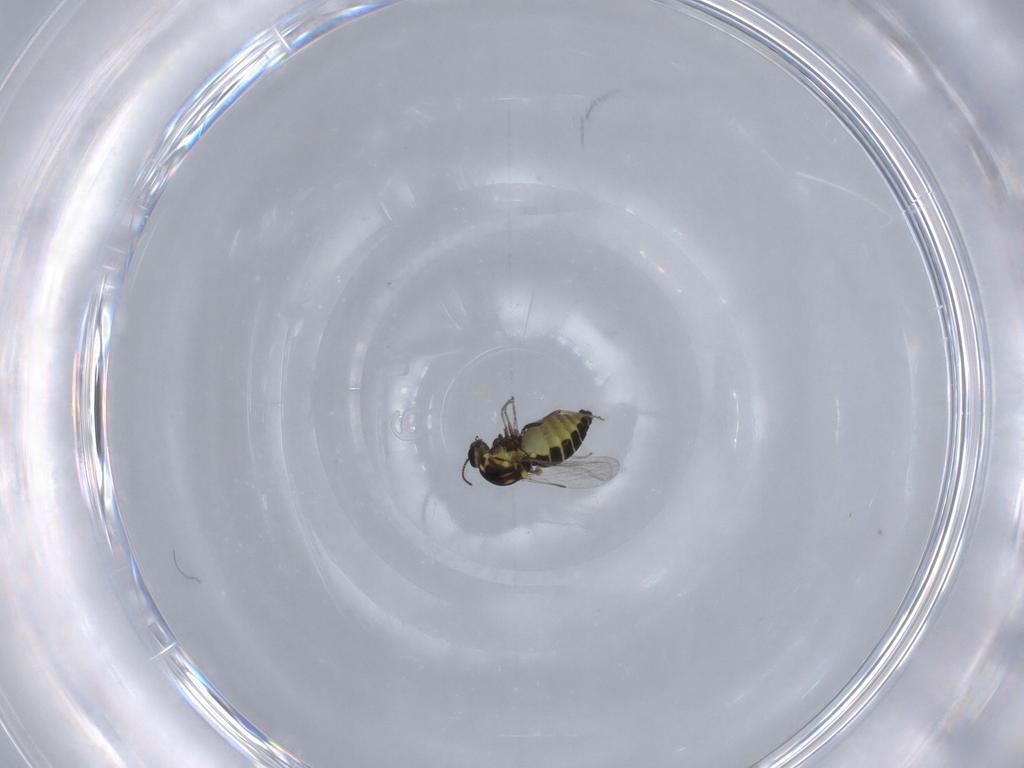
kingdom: Animalia
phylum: Arthropoda
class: Insecta
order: Diptera
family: Ceratopogonidae
